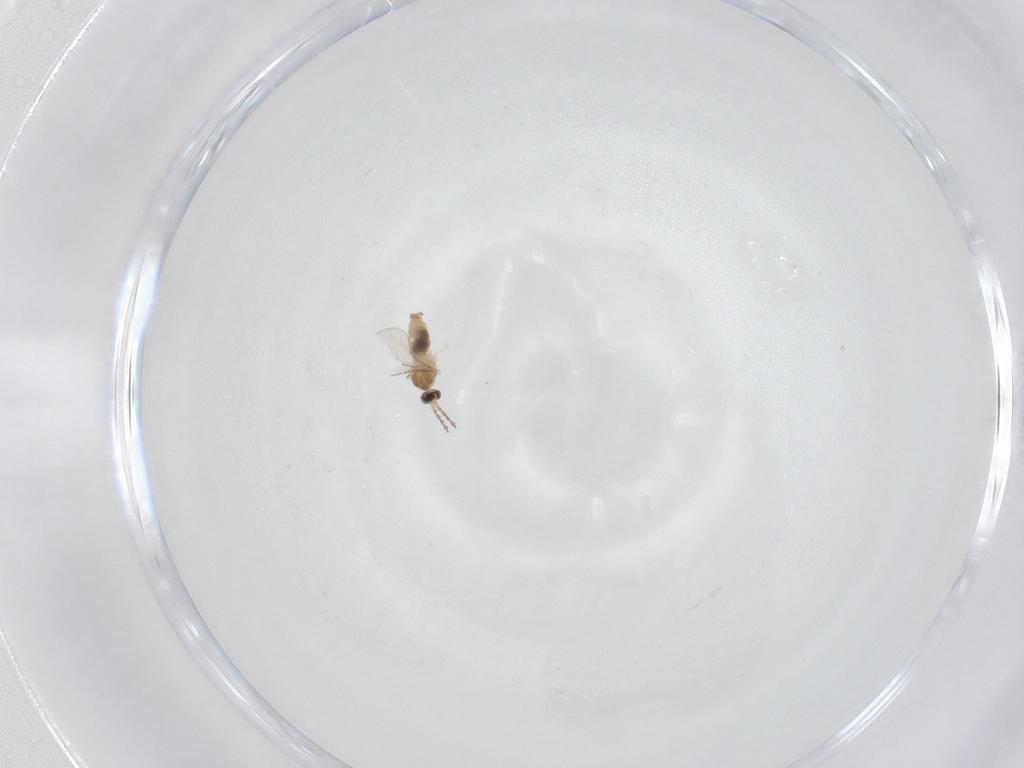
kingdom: Animalia
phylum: Arthropoda
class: Insecta
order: Diptera
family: Cecidomyiidae
